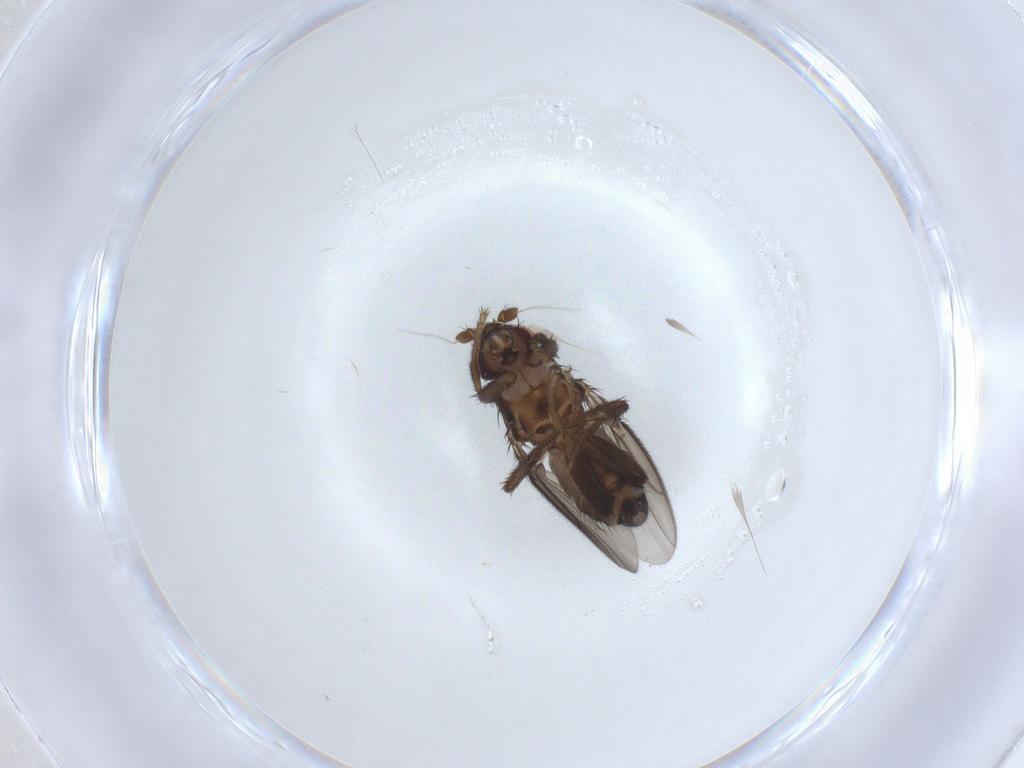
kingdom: Animalia
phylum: Arthropoda
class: Insecta
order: Diptera
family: Sphaeroceridae
